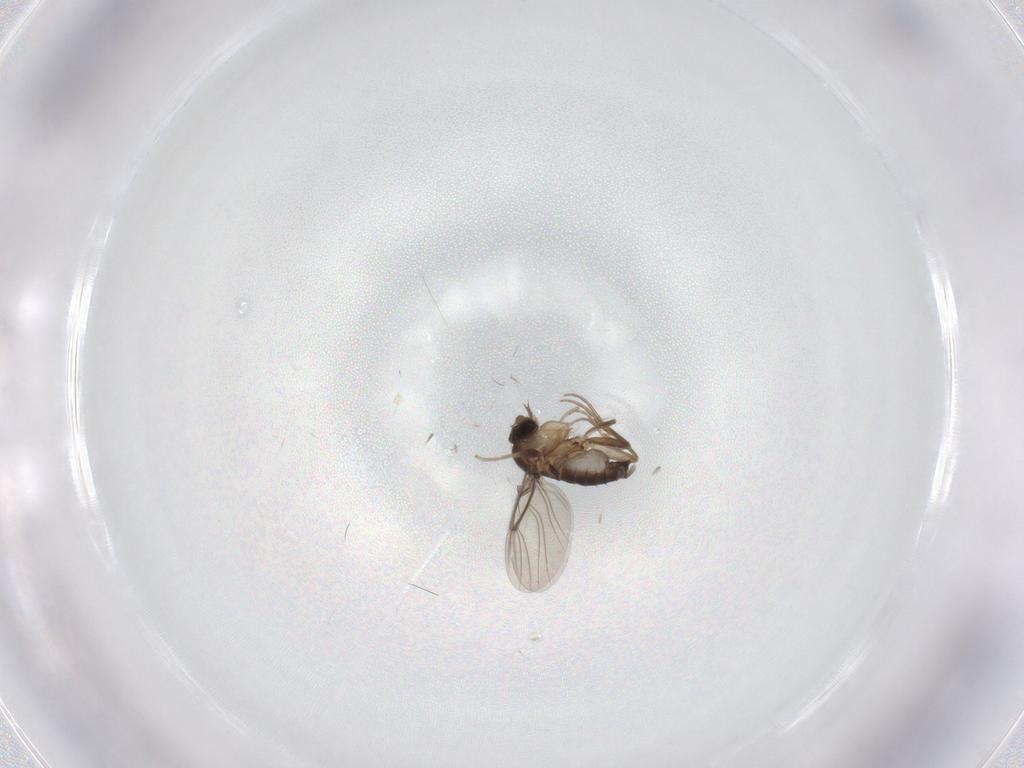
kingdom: Animalia
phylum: Arthropoda
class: Insecta
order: Diptera
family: Phoridae
